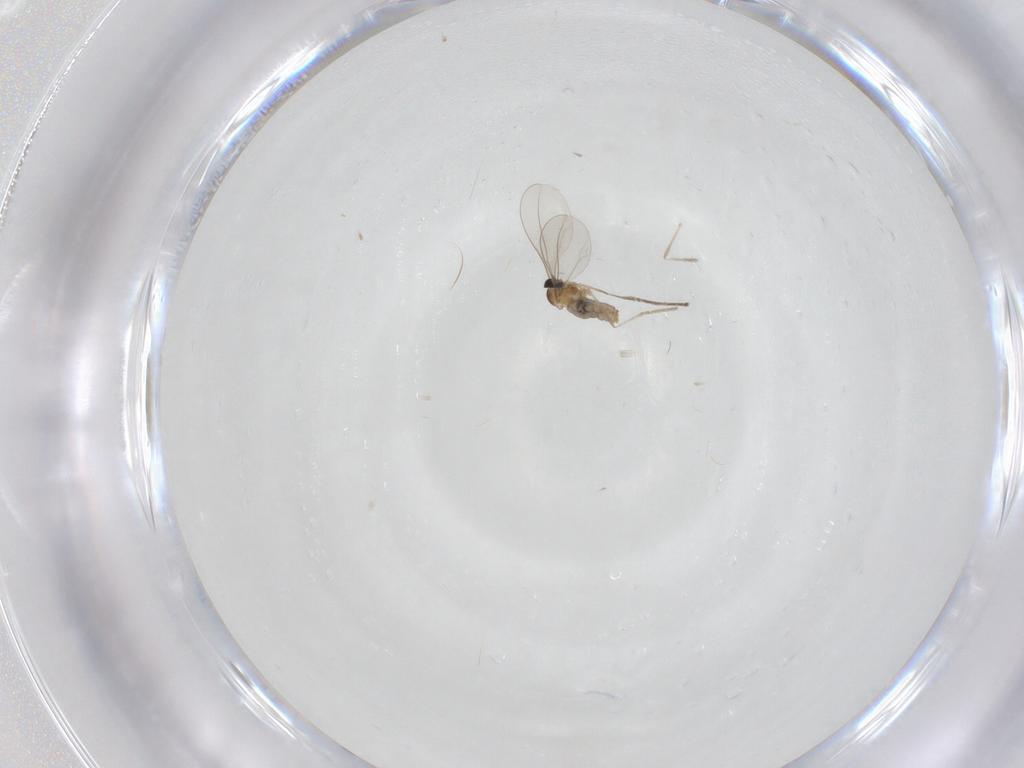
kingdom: Animalia
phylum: Arthropoda
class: Insecta
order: Diptera
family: Cecidomyiidae
